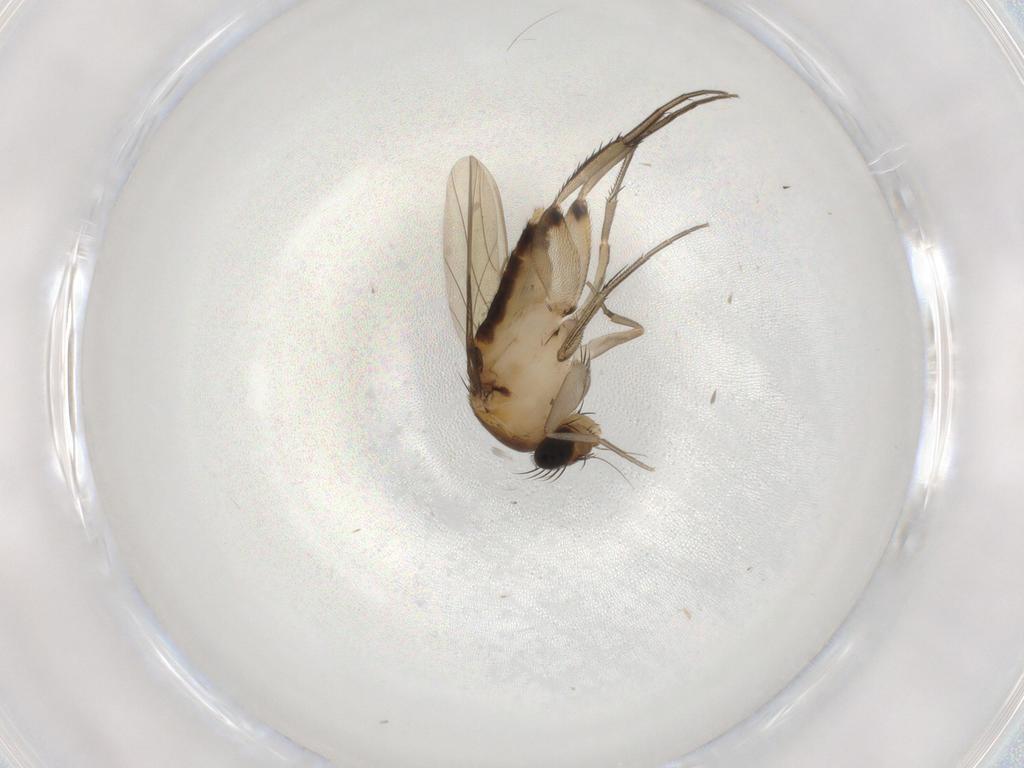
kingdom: Animalia
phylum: Arthropoda
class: Insecta
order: Diptera
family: Phoridae
